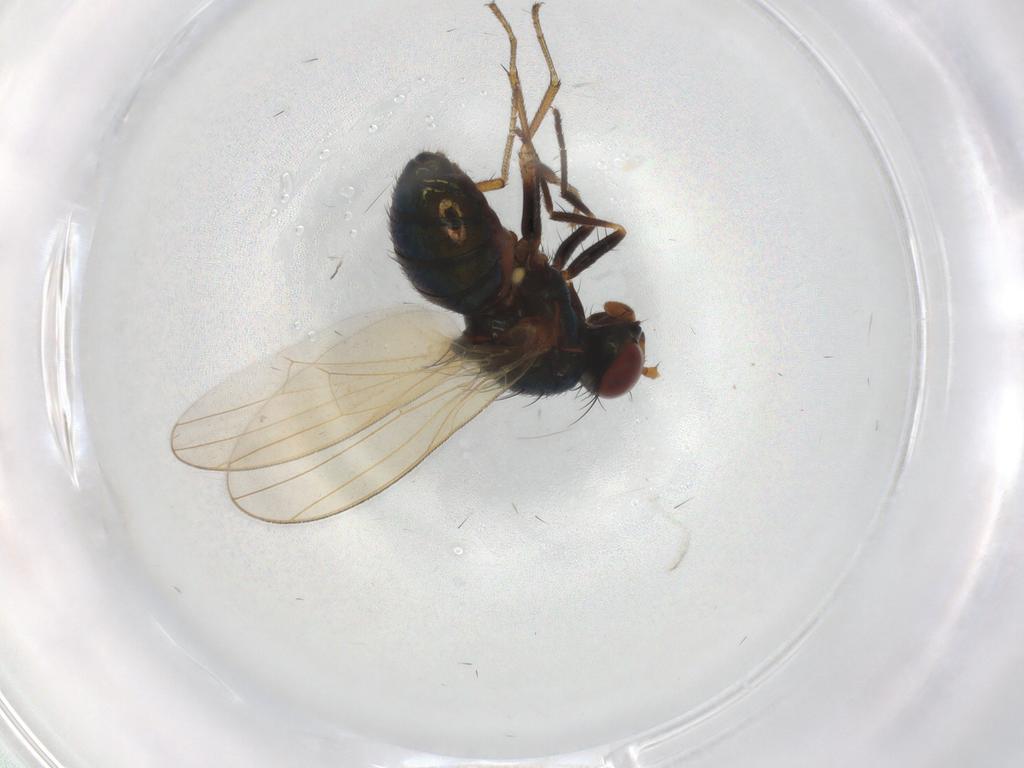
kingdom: Animalia
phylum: Arthropoda
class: Insecta
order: Diptera
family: Lauxaniidae
